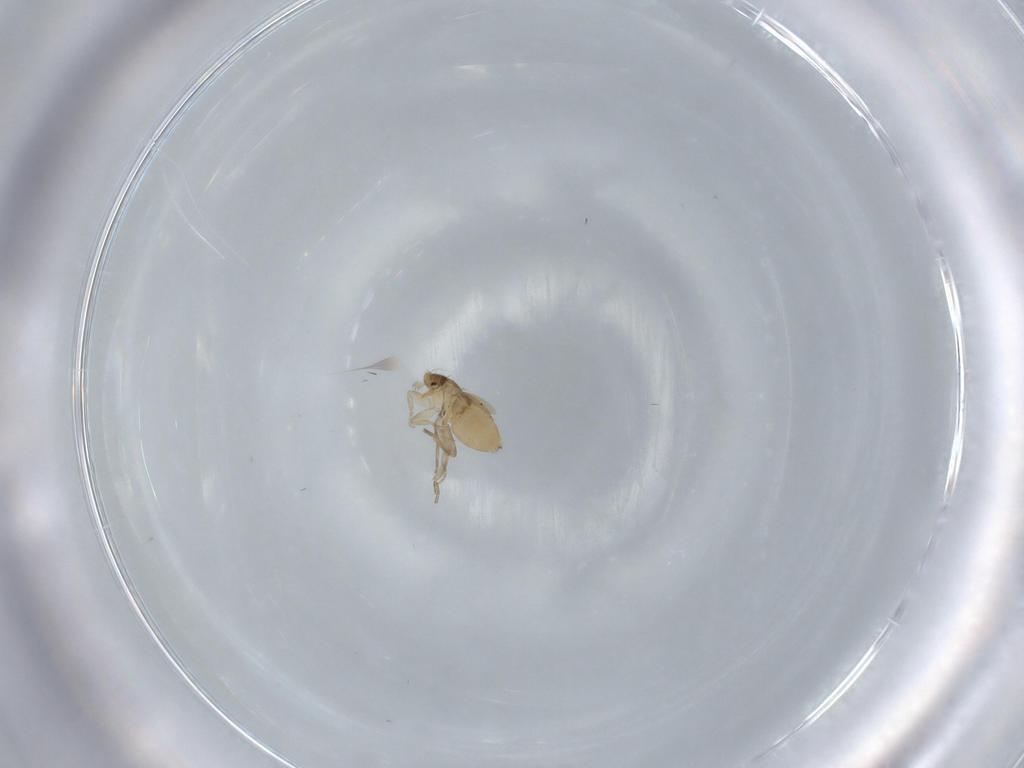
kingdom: Animalia
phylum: Arthropoda
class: Insecta
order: Diptera
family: Phoridae
